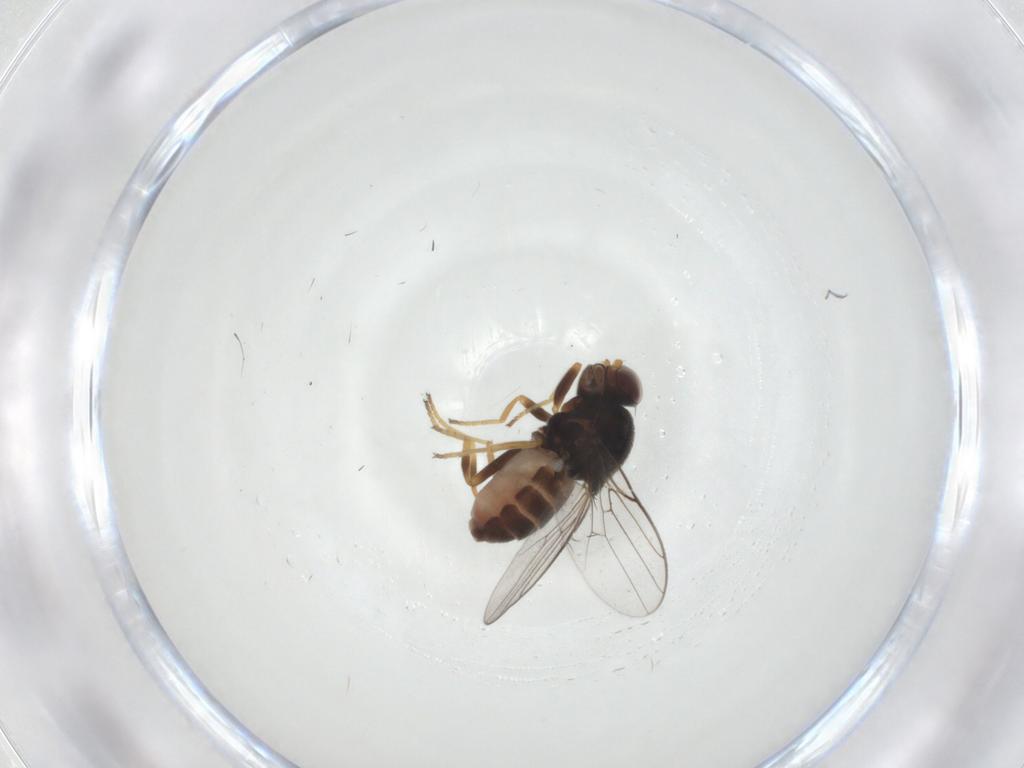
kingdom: Animalia
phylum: Arthropoda
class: Insecta
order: Diptera
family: Chloropidae
